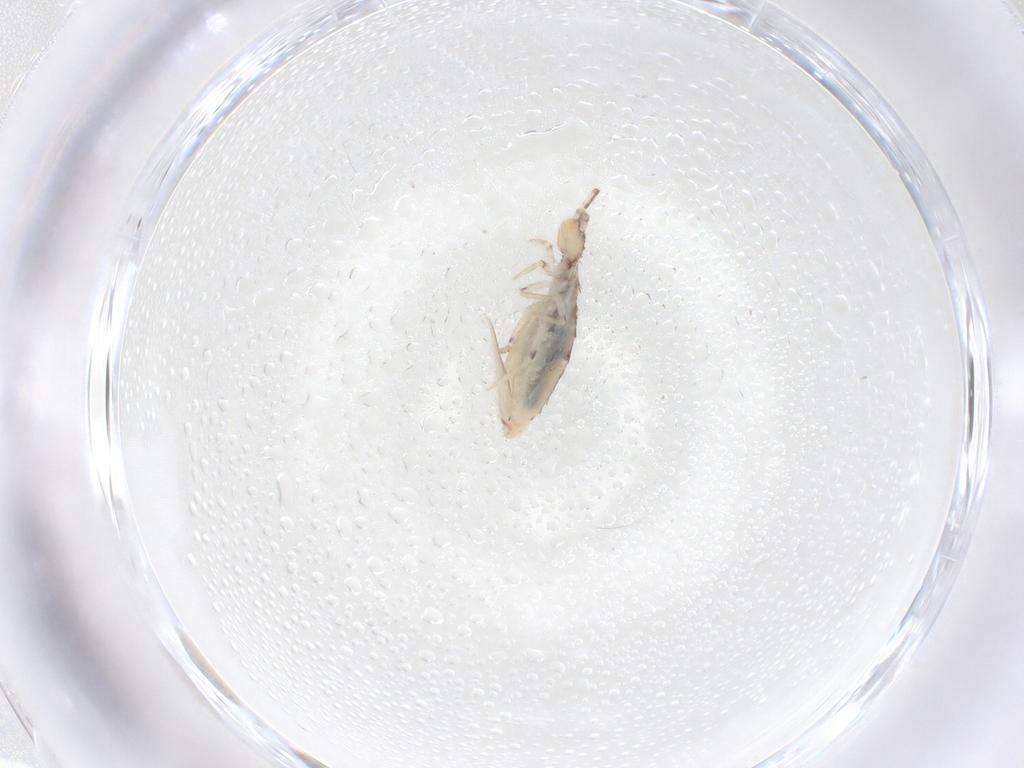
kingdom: Animalia
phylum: Arthropoda
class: Collembola
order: Entomobryomorpha
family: Entomobryidae
